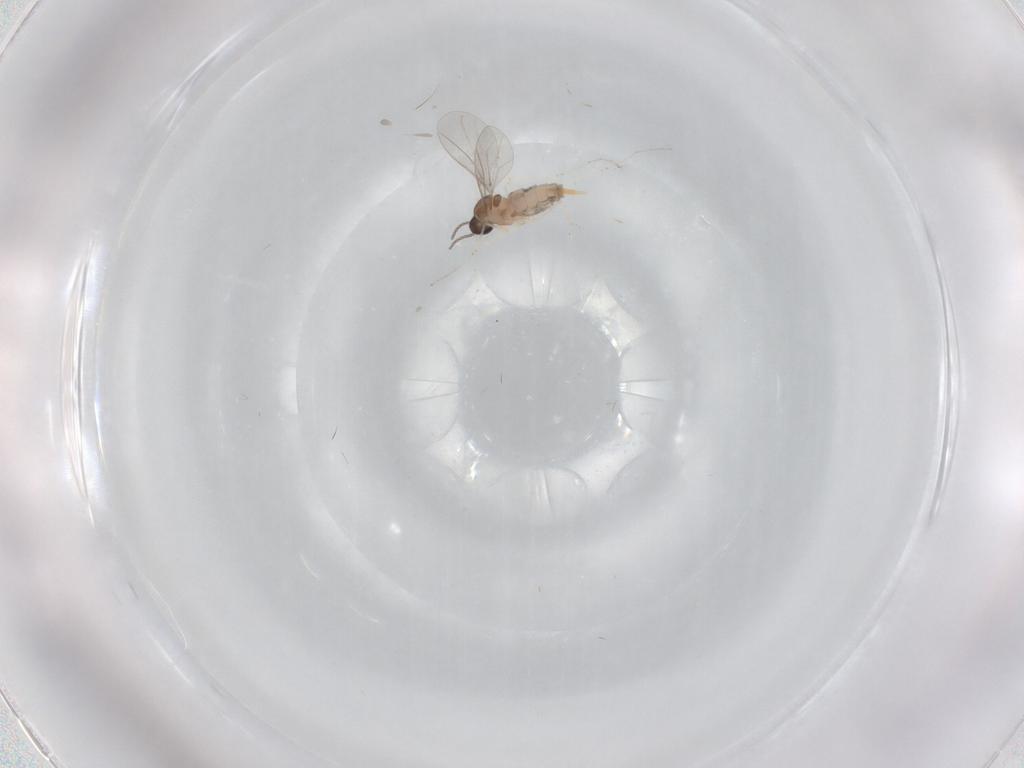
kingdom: Animalia
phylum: Arthropoda
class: Insecta
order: Diptera
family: Cecidomyiidae
